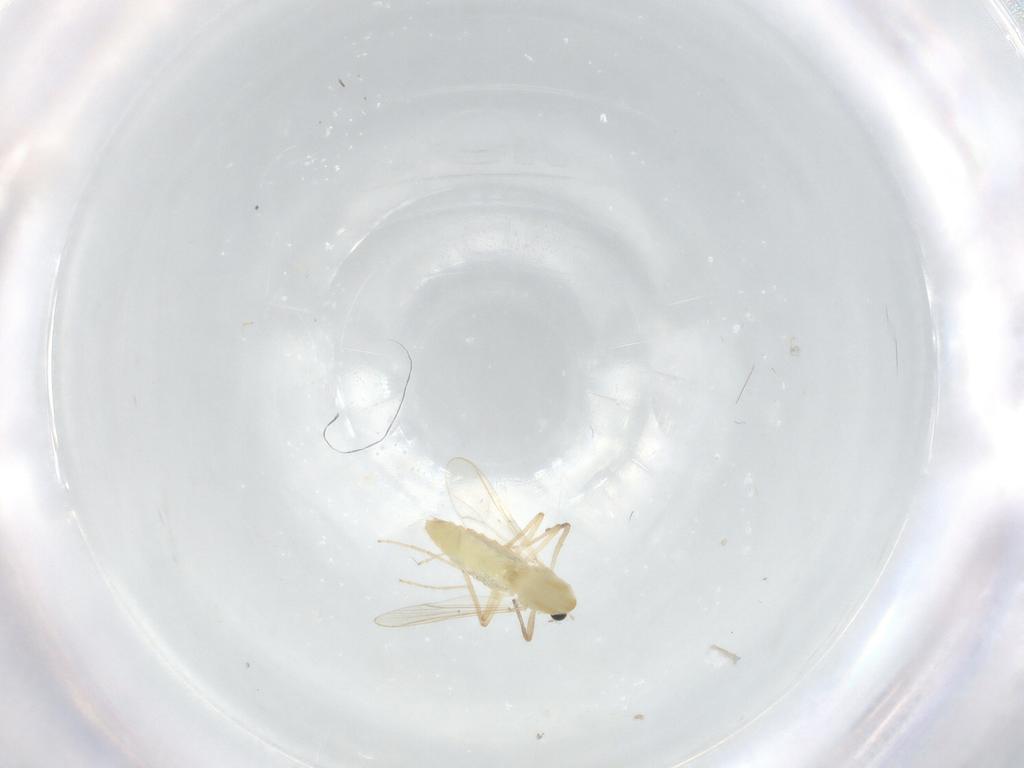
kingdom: Animalia
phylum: Arthropoda
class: Insecta
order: Diptera
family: Chironomidae
